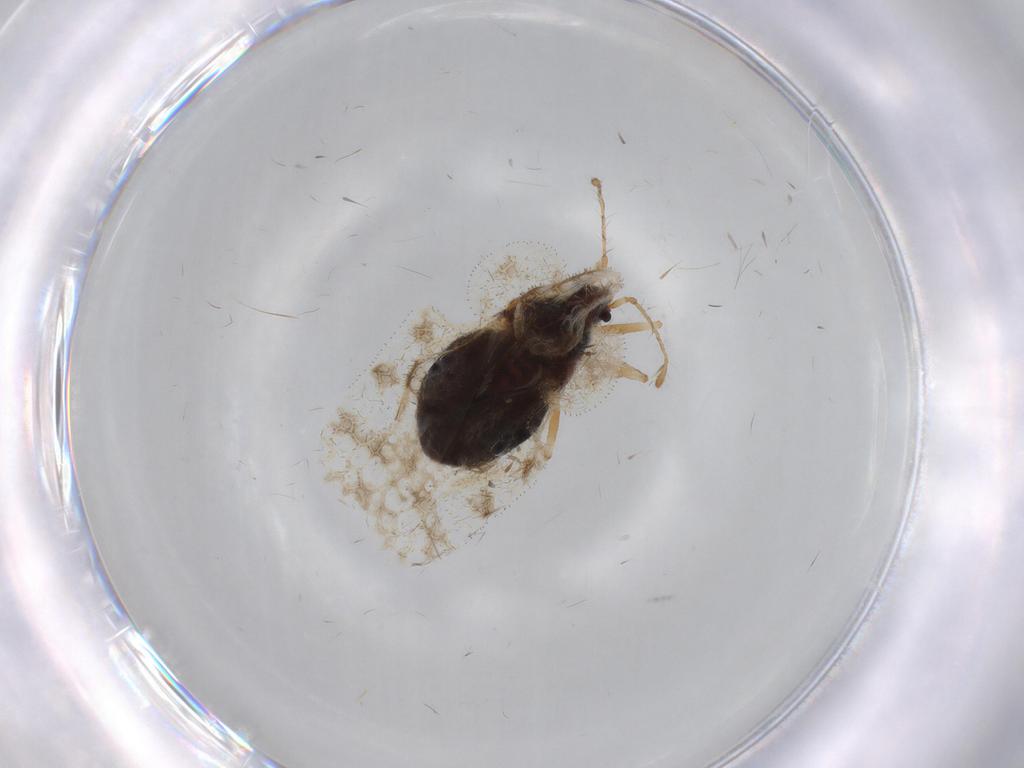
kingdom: Animalia
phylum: Arthropoda
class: Insecta
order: Hemiptera
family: Tingidae
